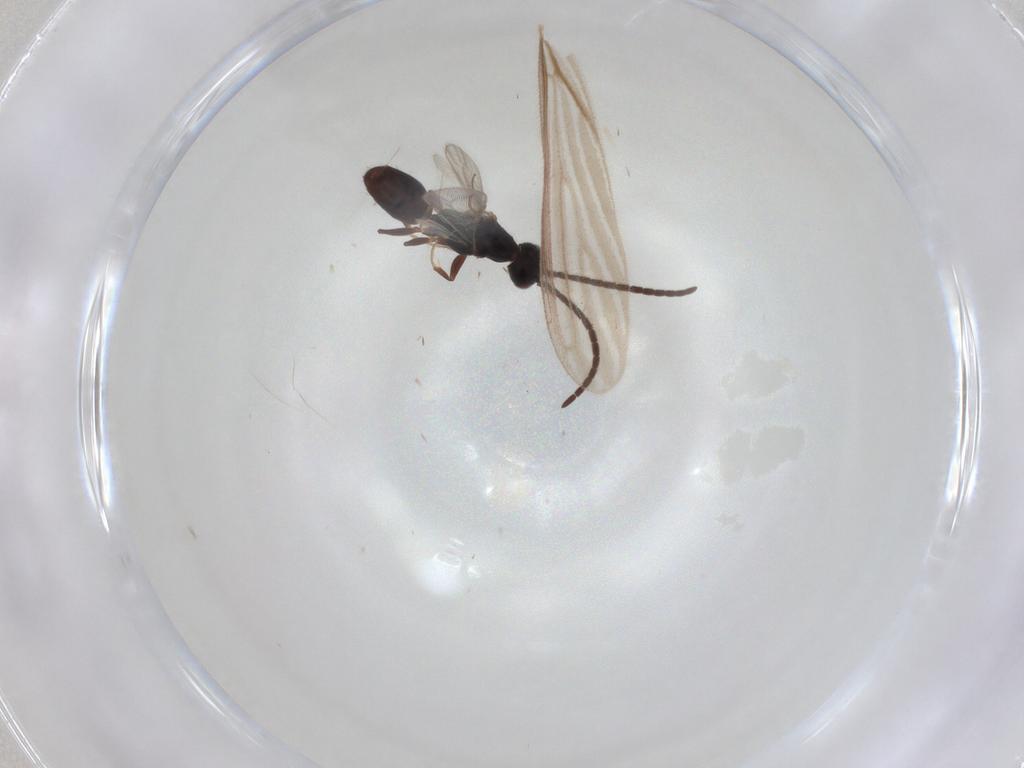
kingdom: Animalia
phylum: Arthropoda
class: Insecta
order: Hymenoptera
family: Bethylidae
